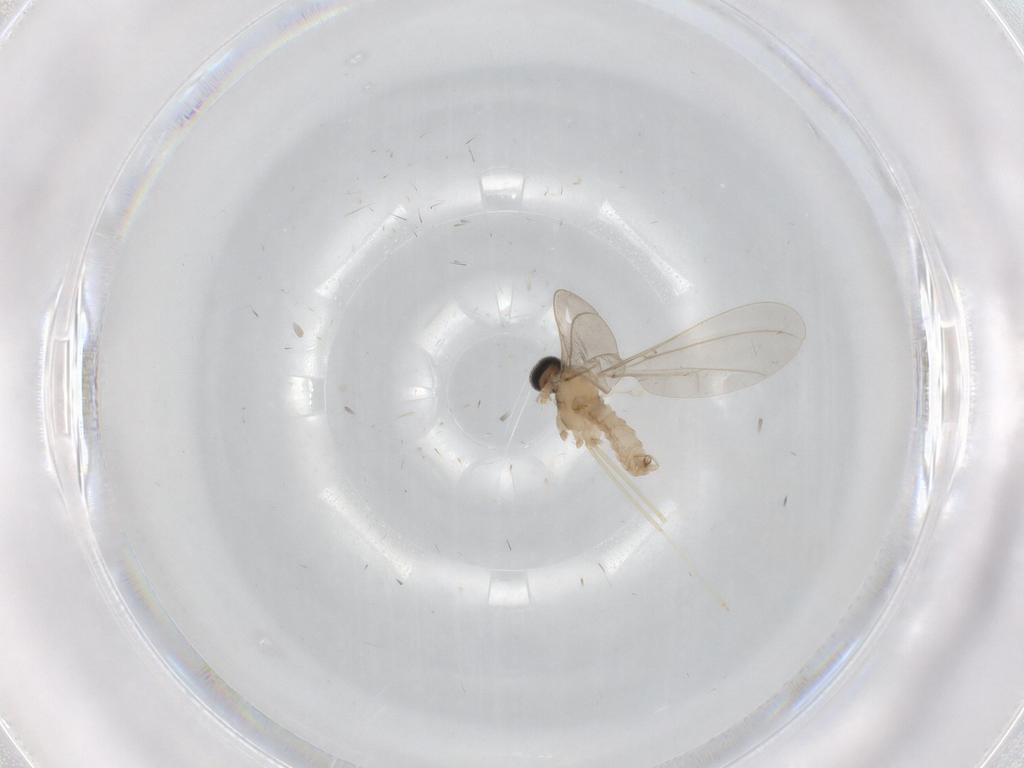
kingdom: Animalia
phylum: Arthropoda
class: Insecta
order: Diptera
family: Cecidomyiidae
